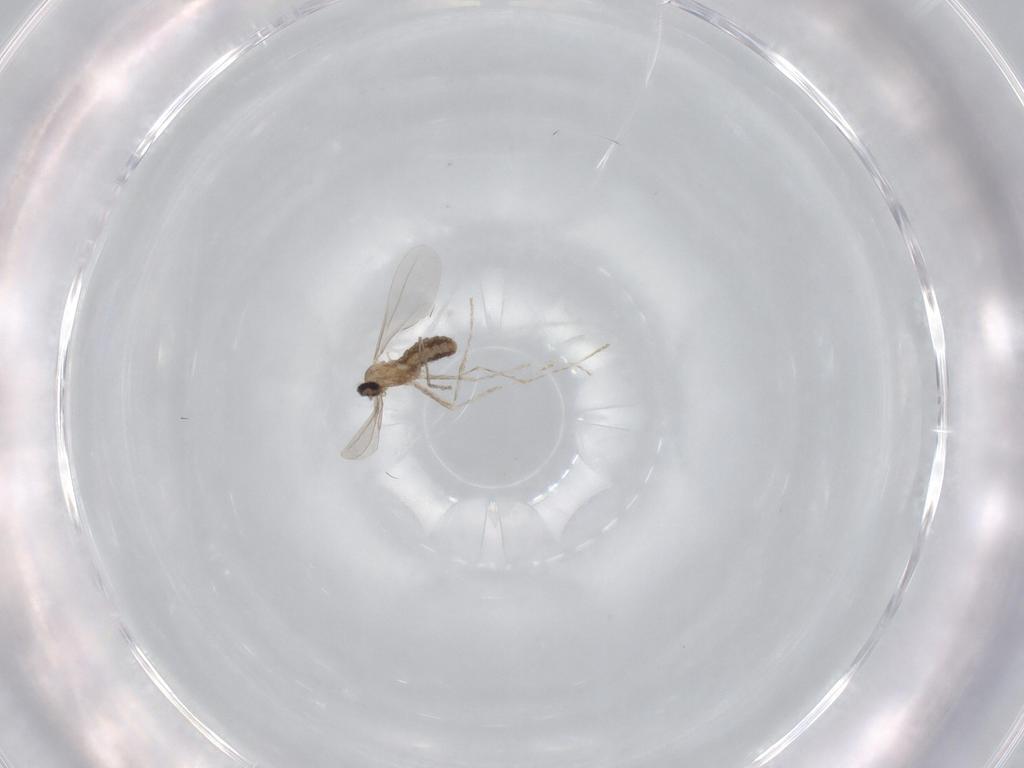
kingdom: Animalia
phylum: Arthropoda
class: Insecta
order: Diptera
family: Cecidomyiidae
